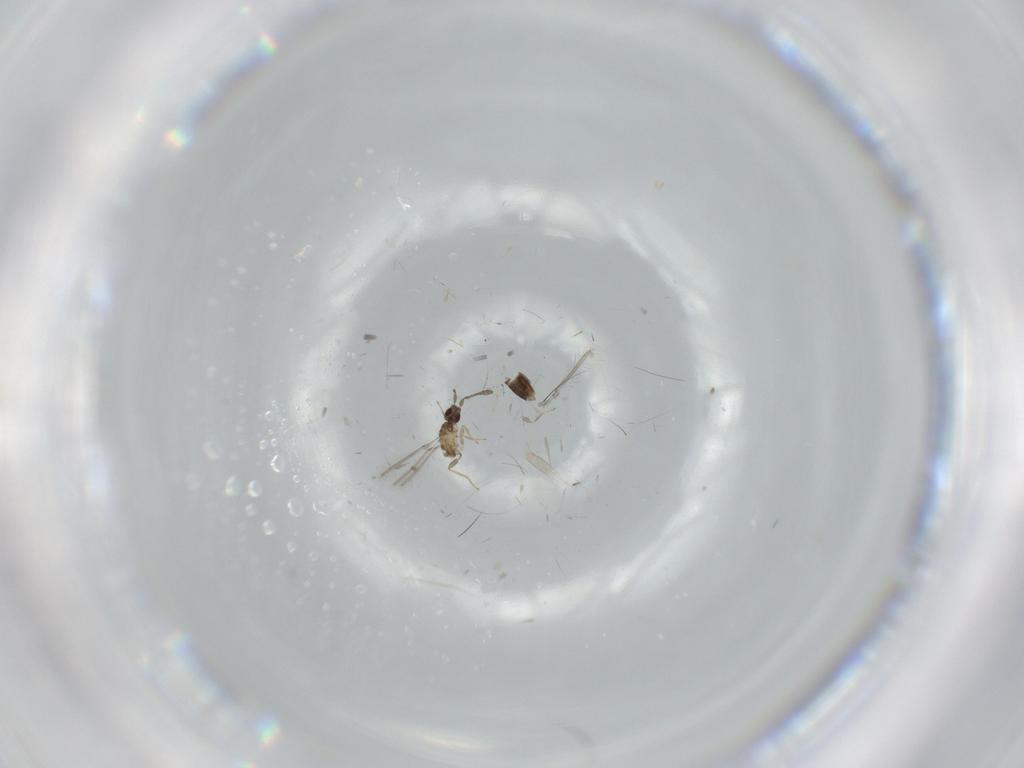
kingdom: Animalia
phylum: Arthropoda
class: Insecta
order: Hymenoptera
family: Mymaridae
